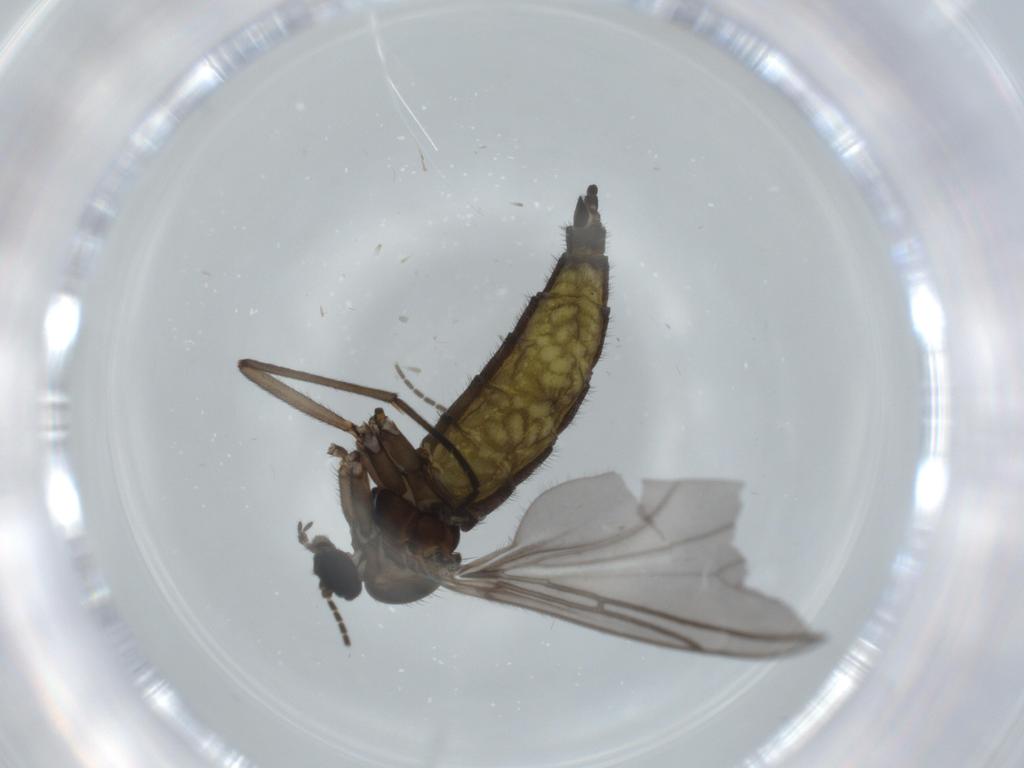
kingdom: Animalia
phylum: Arthropoda
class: Insecta
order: Diptera
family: Sciaridae
